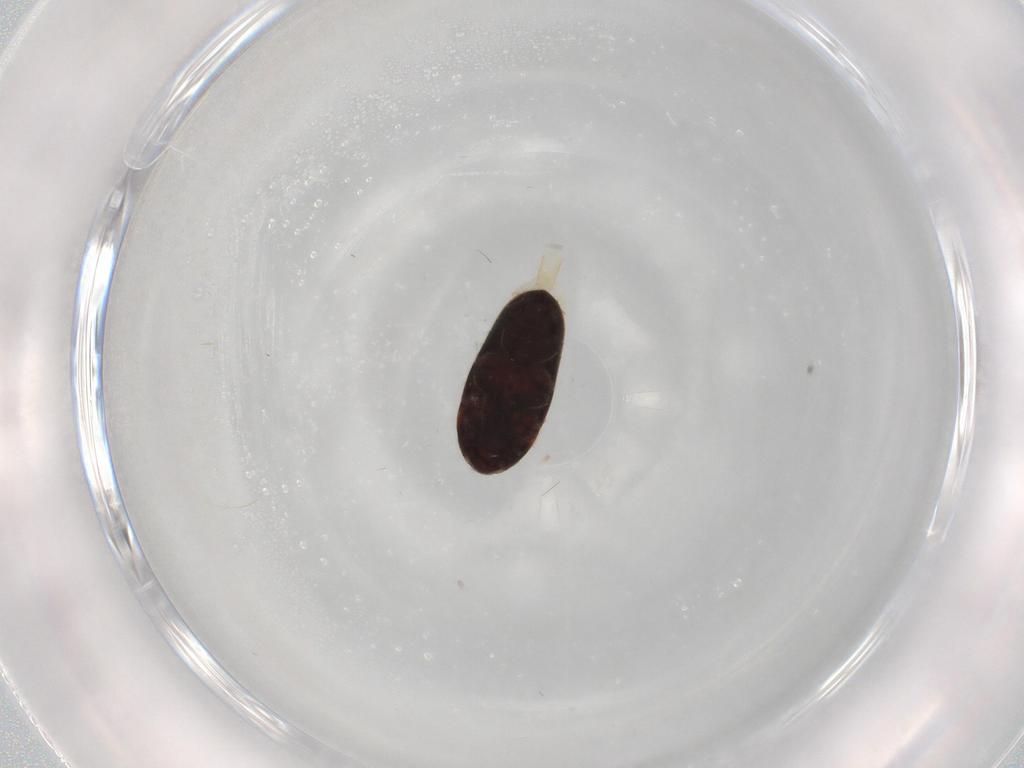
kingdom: Animalia
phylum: Arthropoda
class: Insecta
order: Coleoptera
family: Throscidae
